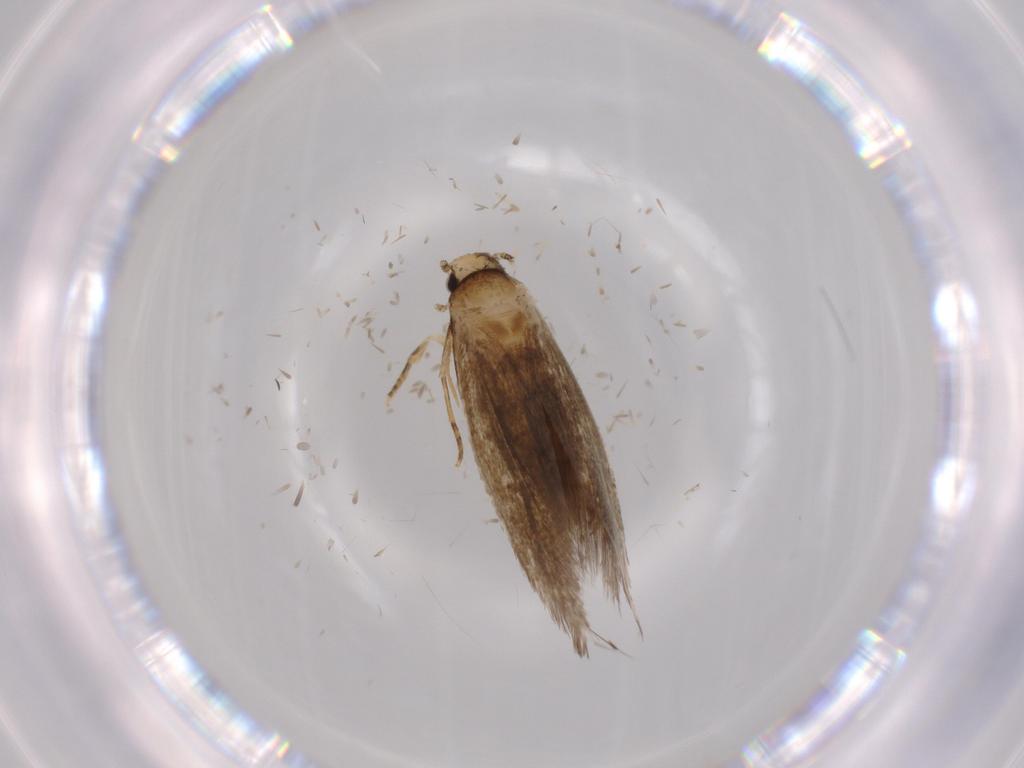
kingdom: Animalia
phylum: Arthropoda
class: Insecta
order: Lepidoptera
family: Tineidae
